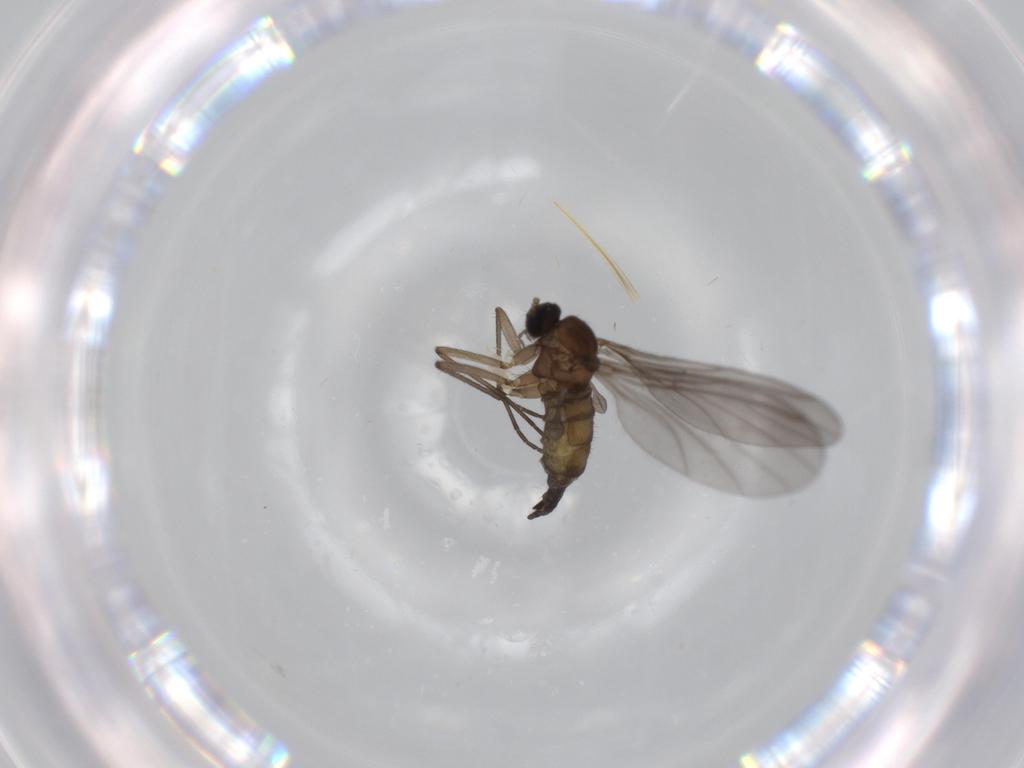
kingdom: Animalia
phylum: Arthropoda
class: Insecta
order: Diptera
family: Sciaridae
